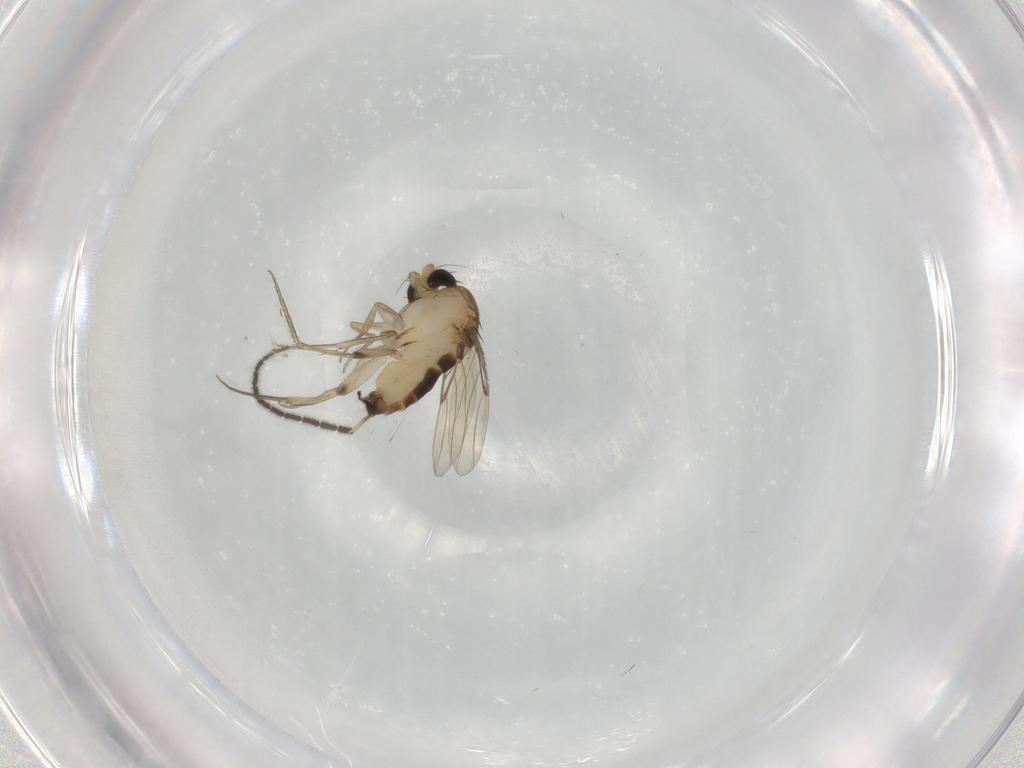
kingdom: Animalia
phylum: Arthropoda
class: Insecta
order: Diptera
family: Phoridae
